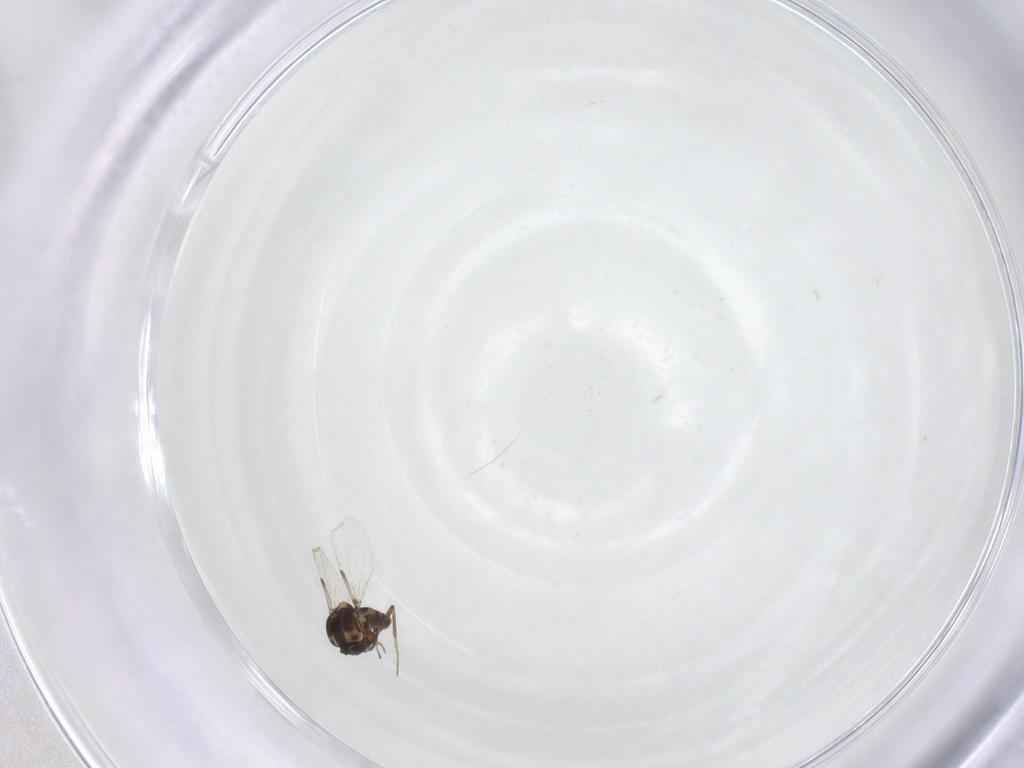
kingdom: Animalia
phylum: Arthropoda
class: Insecta
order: Diptera
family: Ceratopogonidae
